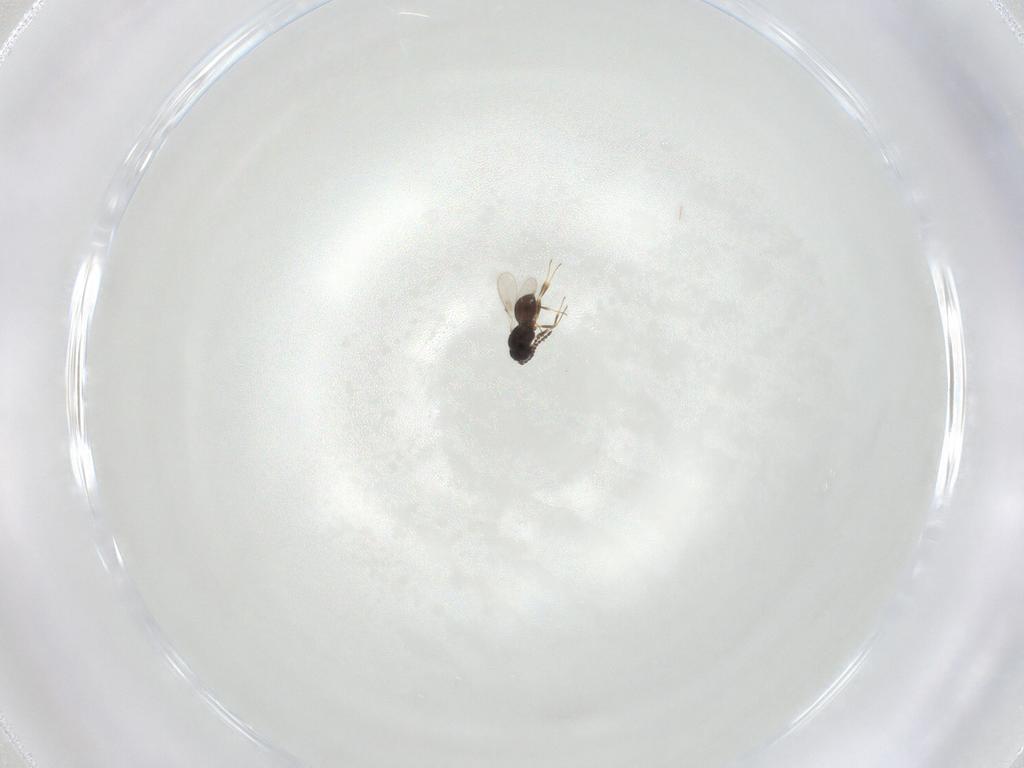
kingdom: Animalia
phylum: Arthropoda
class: Insecta
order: Hymenoptera
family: Scelionidae
